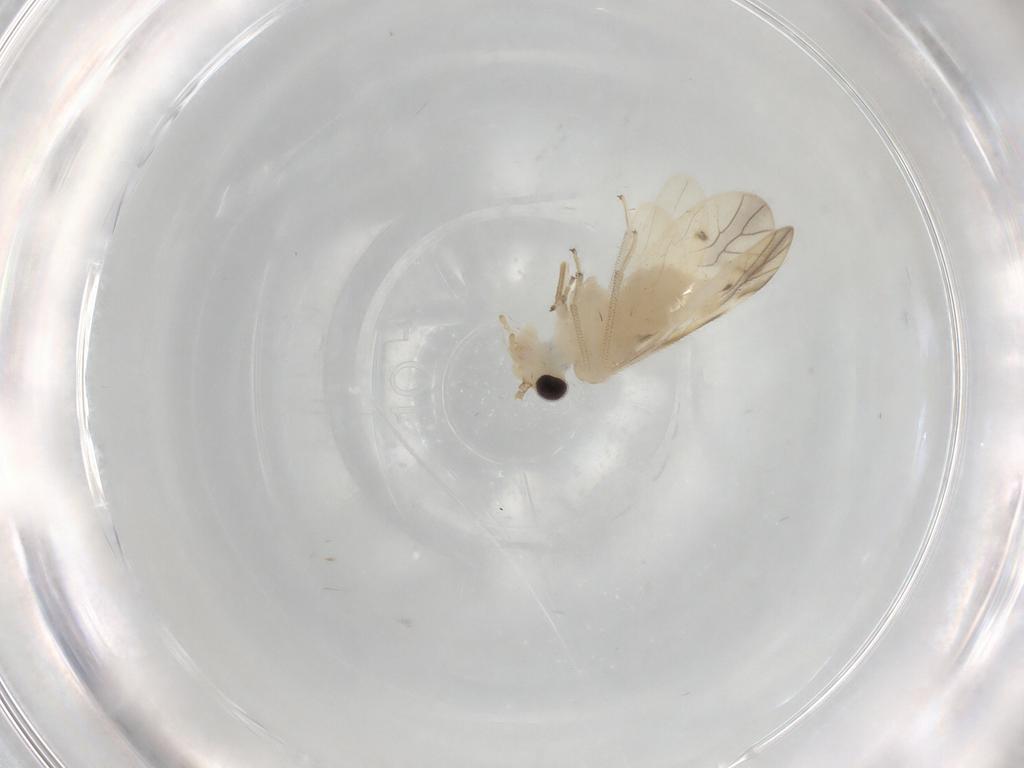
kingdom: Animalia
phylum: Arthropoda
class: Insecta
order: Psocodea
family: Caeciliusidae
